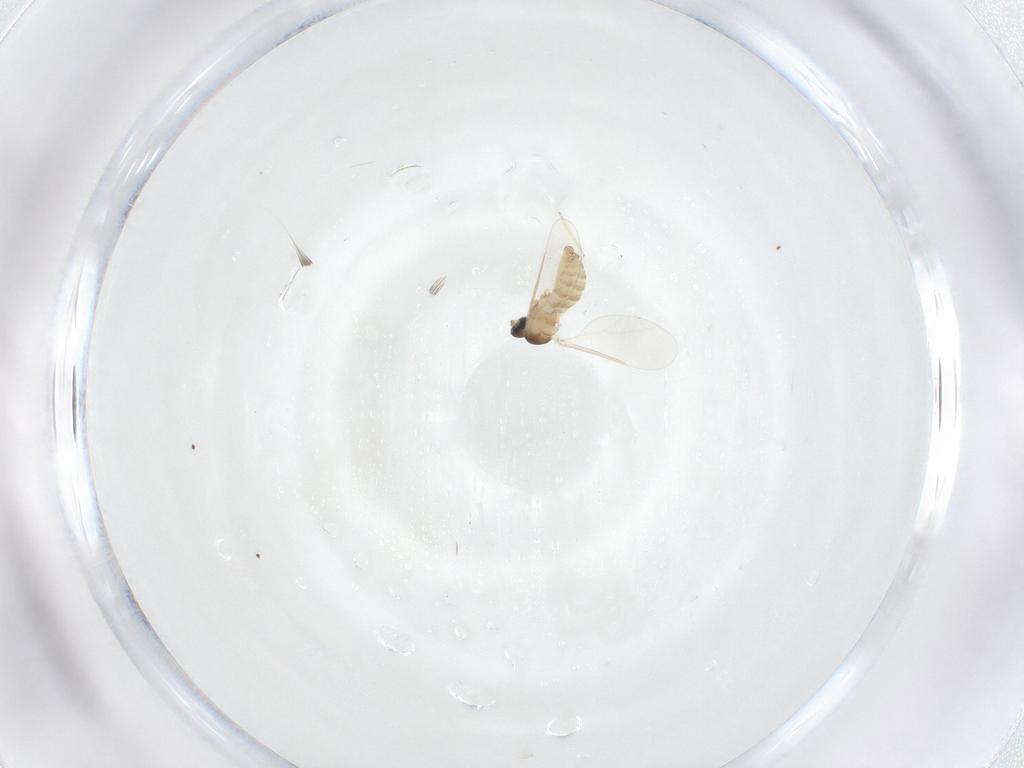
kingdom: Animalia
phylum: Arthropoda
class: Insecta
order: Diptera
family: Cecidomyiidae
